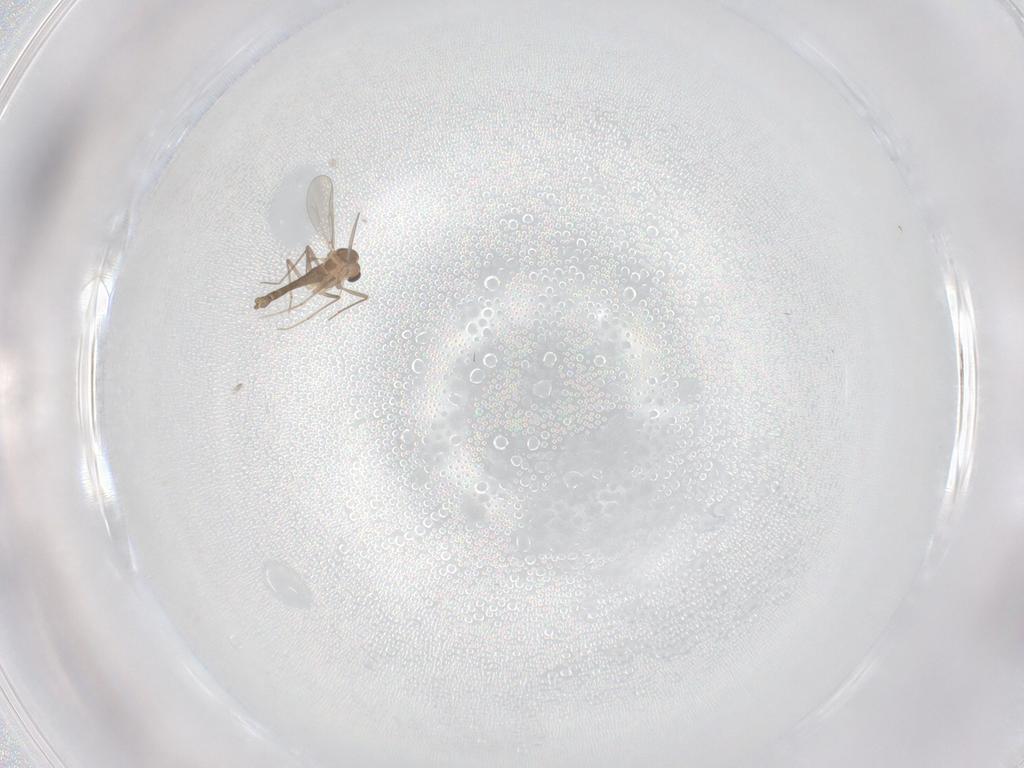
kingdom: Animalia
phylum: Arthropoda
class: Insecta
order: Diptera
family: Chironomidae
